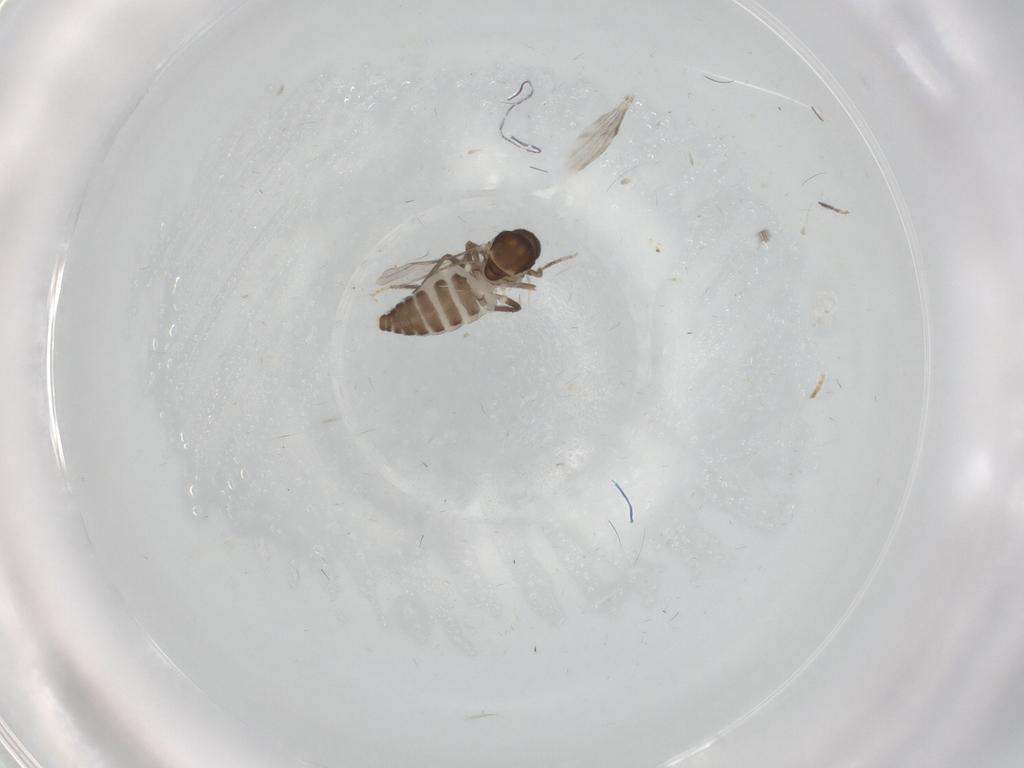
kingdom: Animalia
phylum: Arthropoda
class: Insecta
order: Diptera
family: Ceratopogonidae
